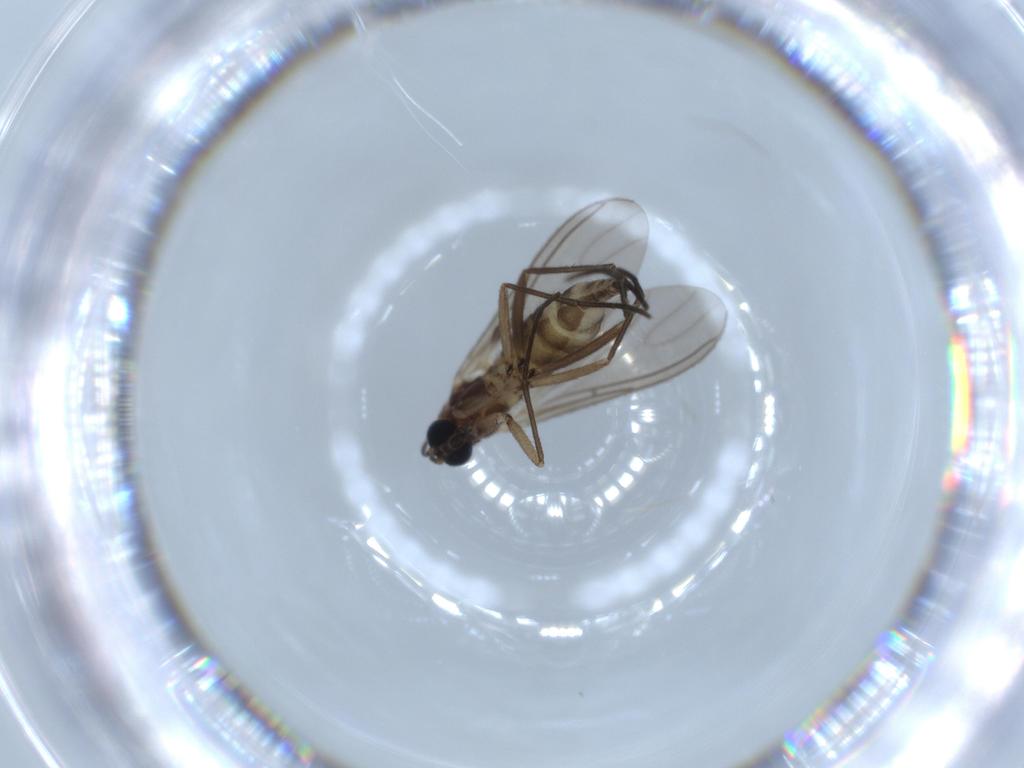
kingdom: Animalia
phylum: Arthropoda
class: Insecta
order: Diptera
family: Sciaridae
